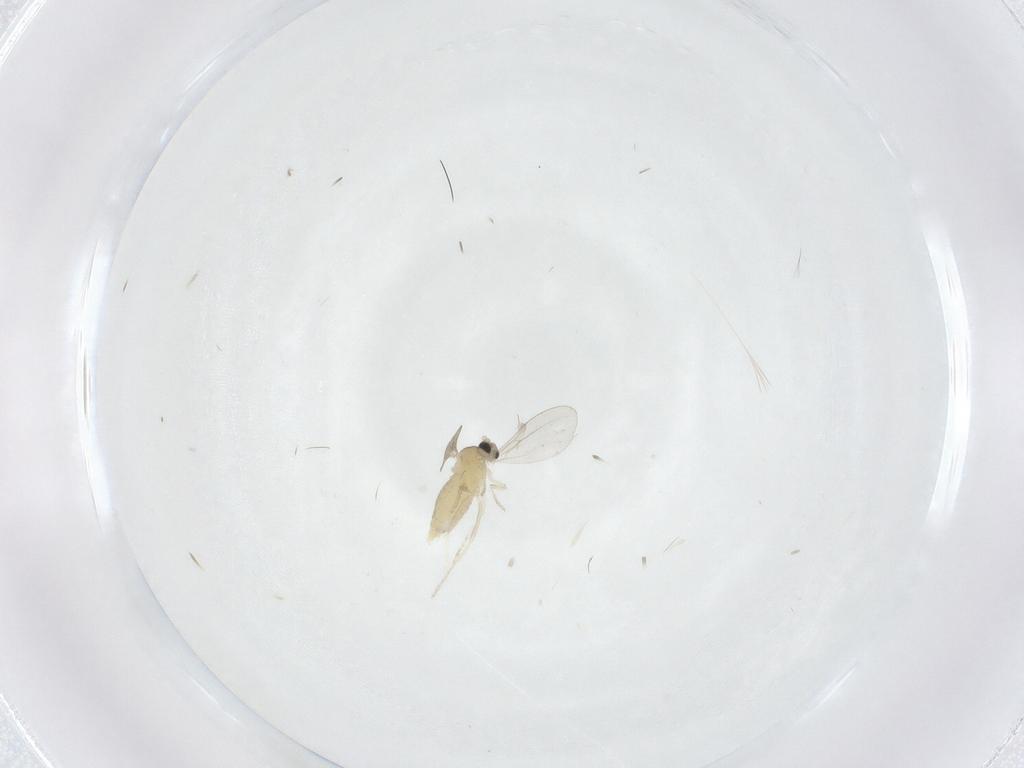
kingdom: Animalia
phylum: Arthropoda
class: Insecta
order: Diptera
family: Cecidomyiidae
